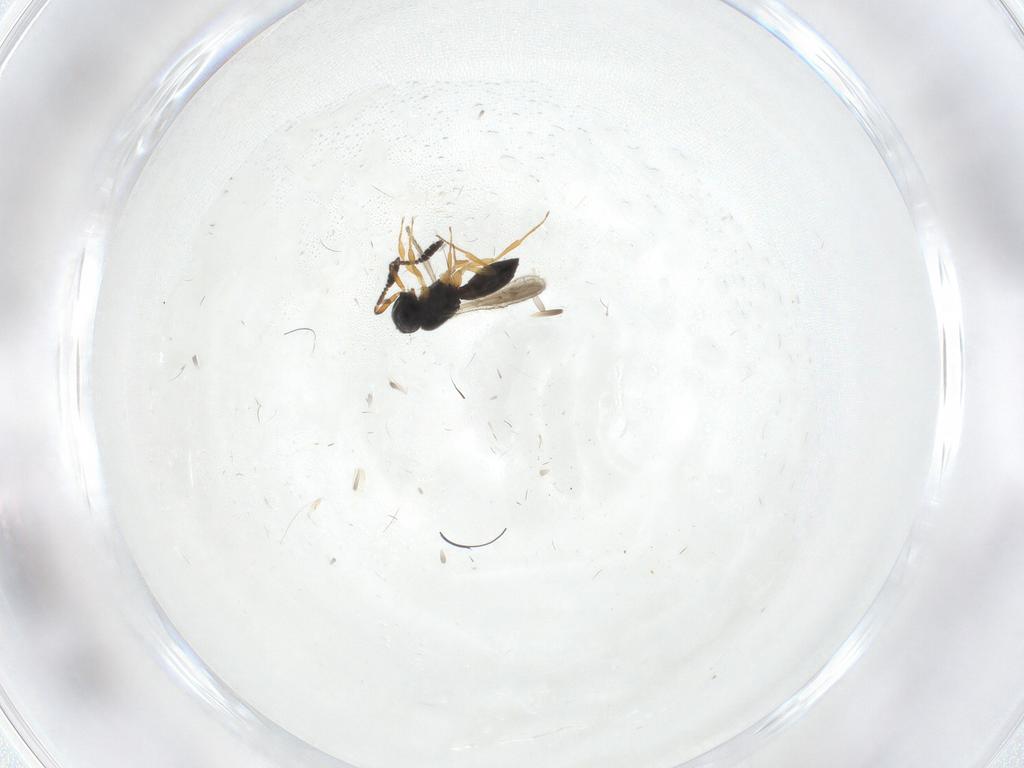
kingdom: Animalia
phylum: Arthropoda
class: Insecta
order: Hymenoptera
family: Scelionidae
